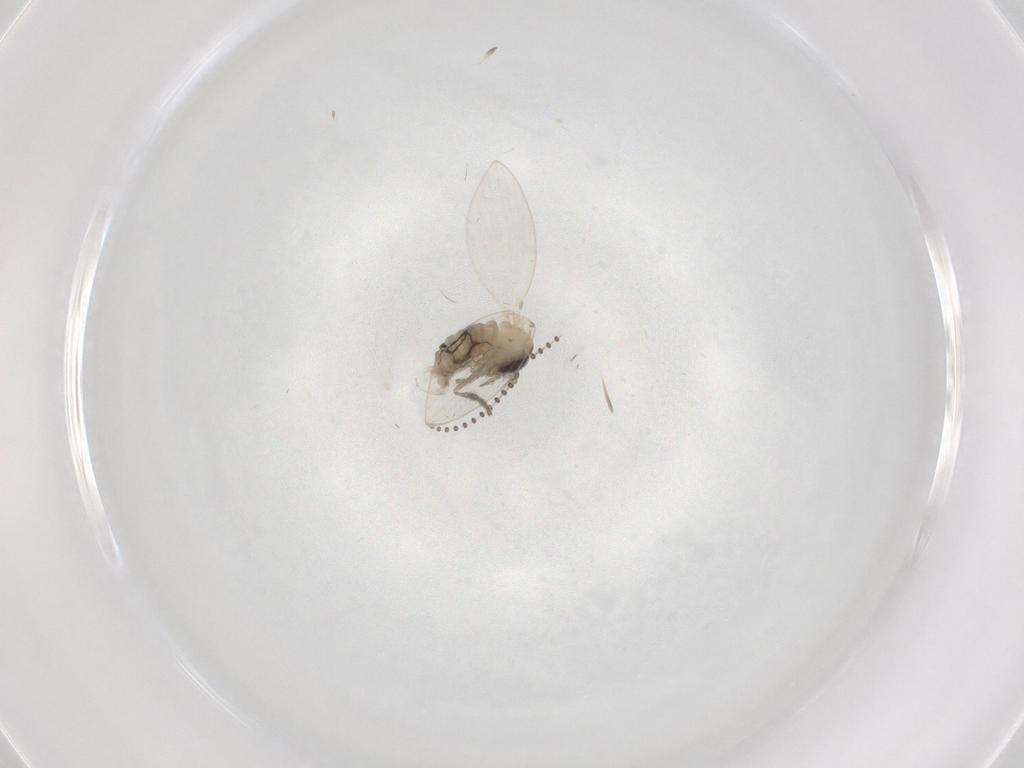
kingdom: Animalia
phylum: Arthropoda
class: Insecta
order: Diptera
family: Psychodidae
